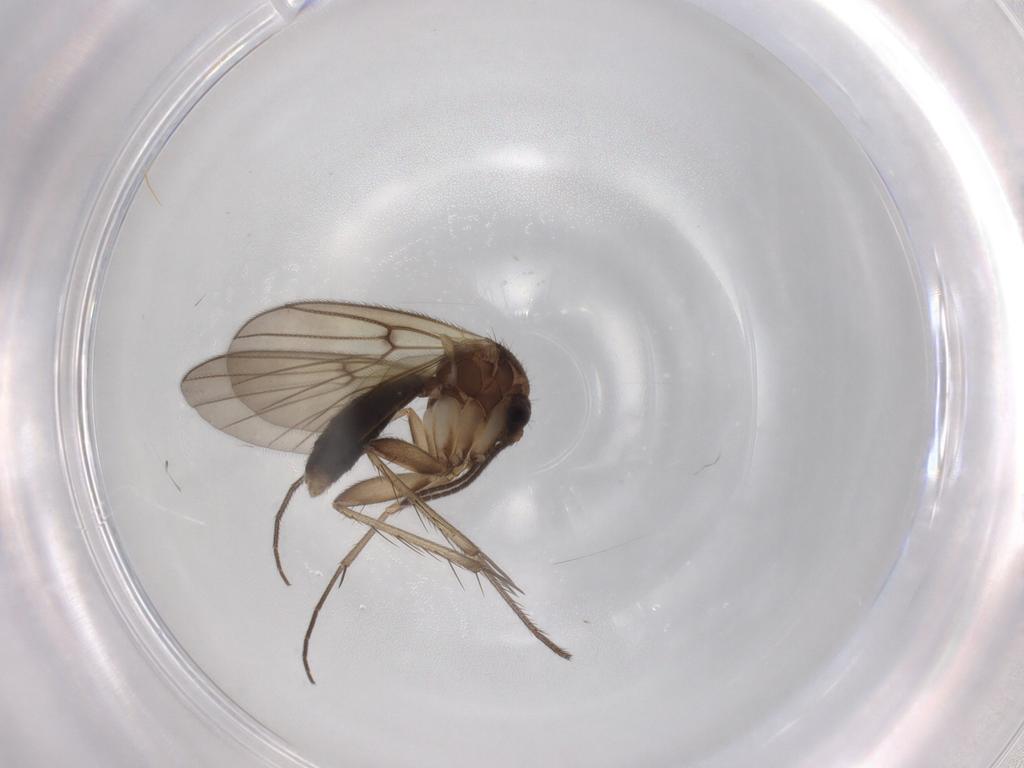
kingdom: Animalia
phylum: Arthropoda
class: Insecta
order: Diptera
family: Mycetophilidae
